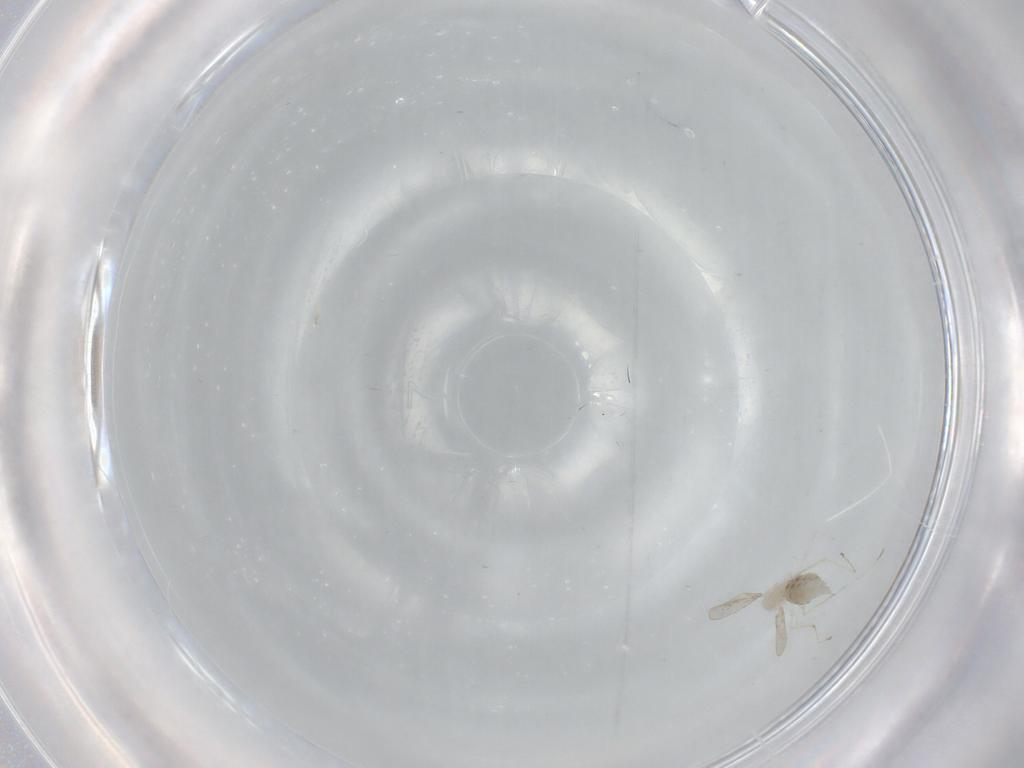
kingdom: Animalia
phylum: Arthropoda
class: Insecta
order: Diptera
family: Cecidomyiidae
